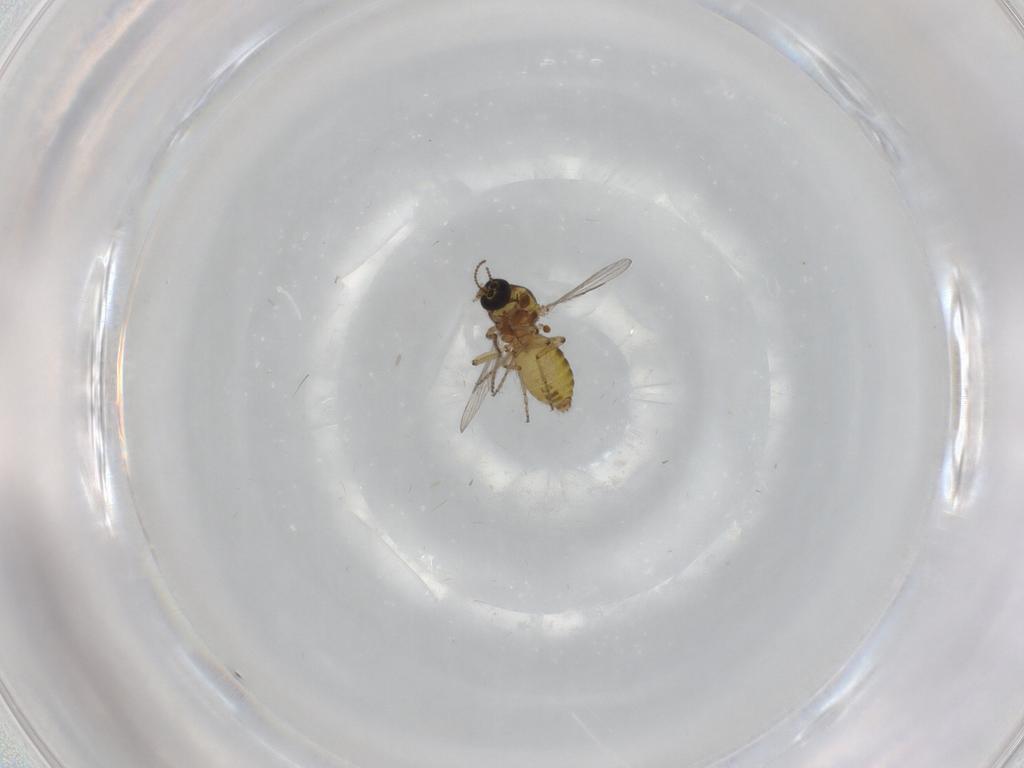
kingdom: Animalia
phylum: Arthropoda
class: Insecta
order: Diptera
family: Ceratopogonidae
